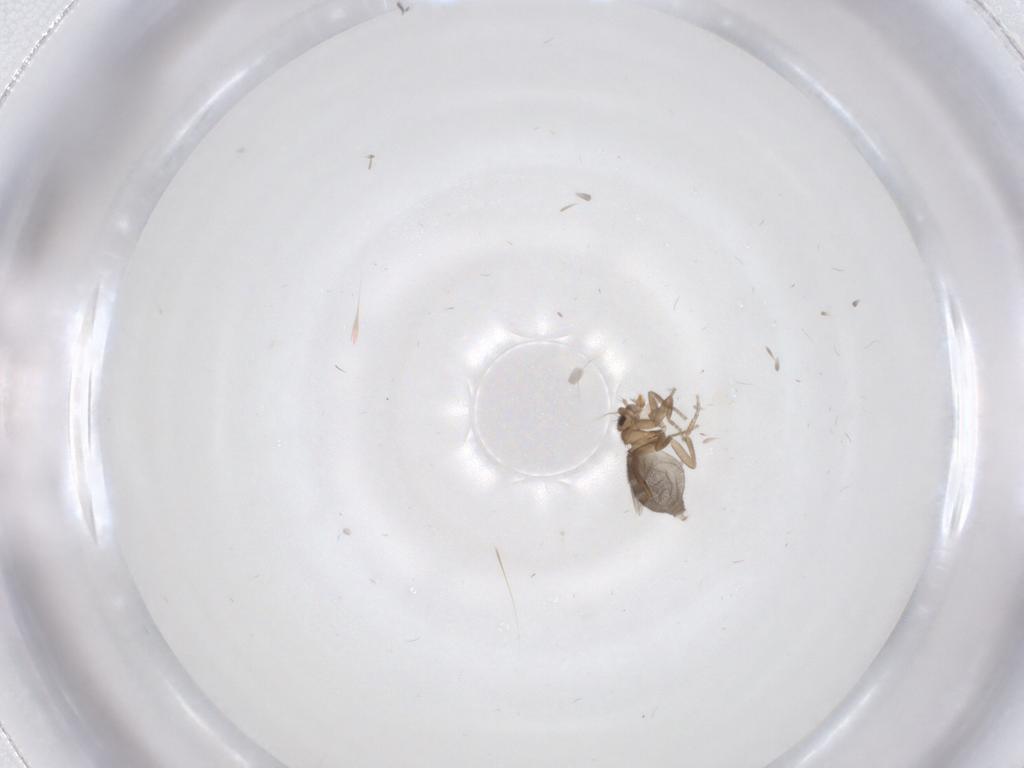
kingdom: Animalia
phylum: Arthropoda
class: Insecta
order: Diptera
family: Phoridae
